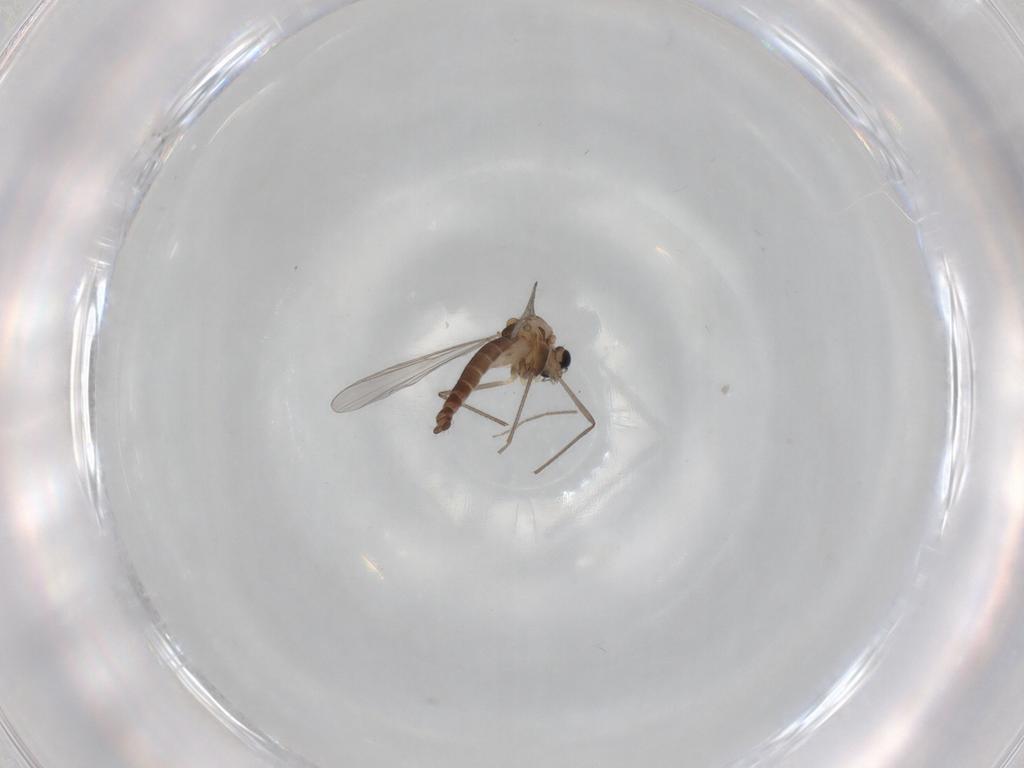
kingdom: Animalia
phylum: Arthropoda
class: Insecta
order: Diptera
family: Chironomidae
